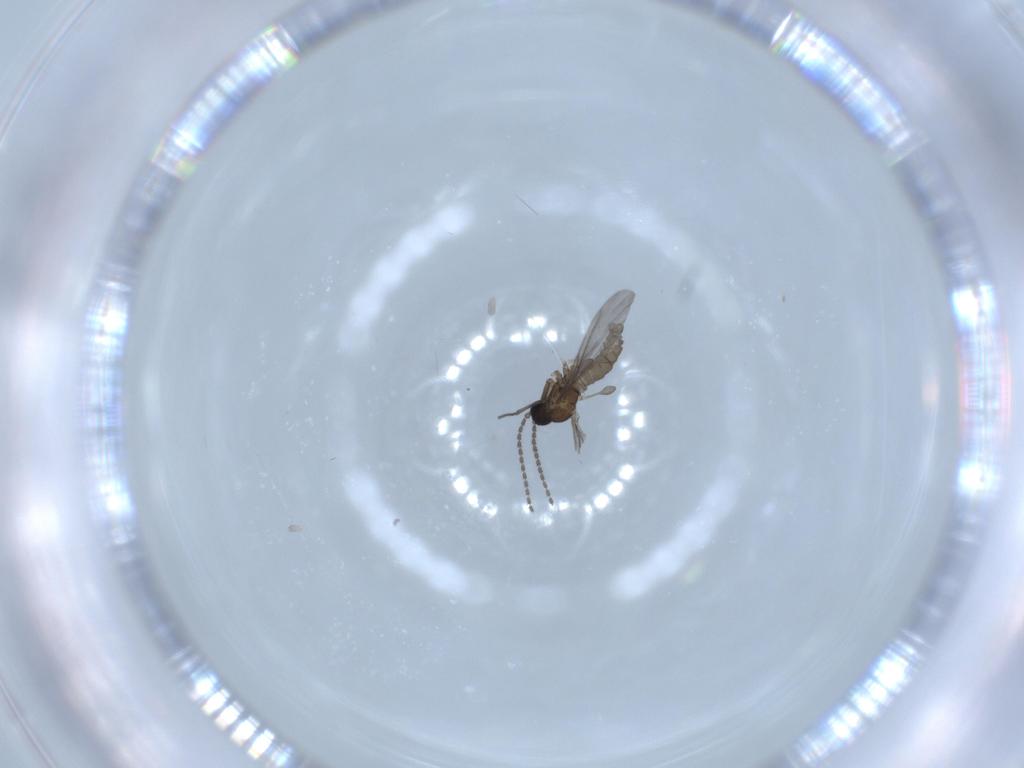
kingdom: Animalia
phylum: Arthropoda
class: Insecta
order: Diptera
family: Sciaridae
